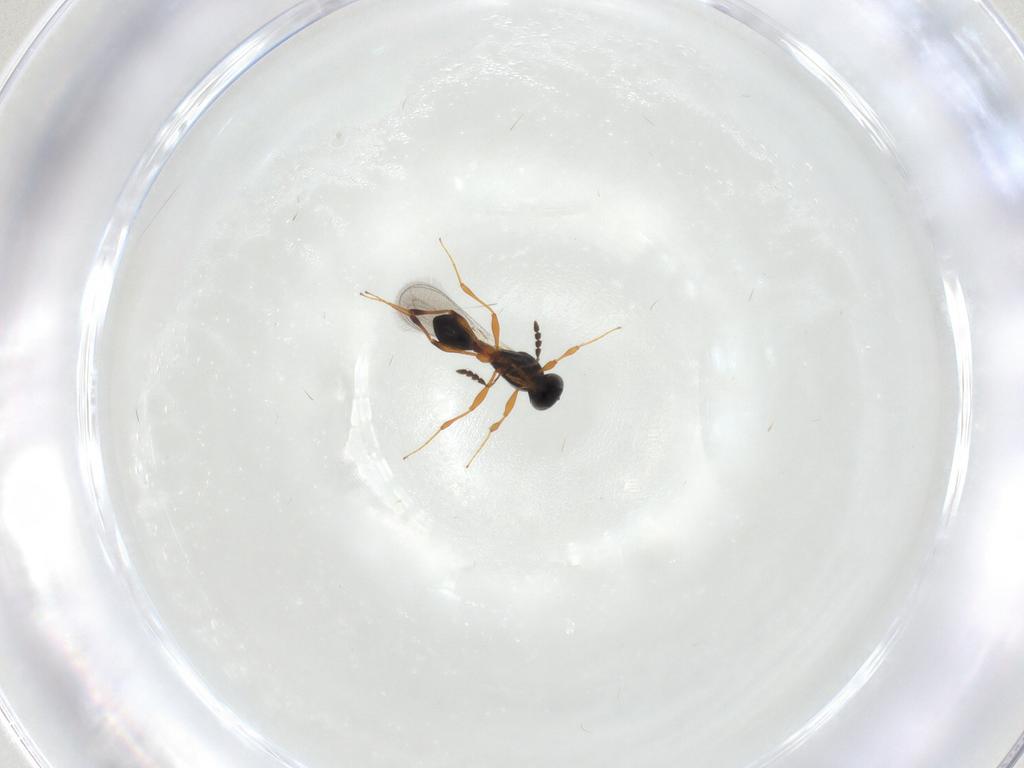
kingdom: Animalia
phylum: Arthropoda
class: Insecta
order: Hymenoptera
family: Platygastridae
